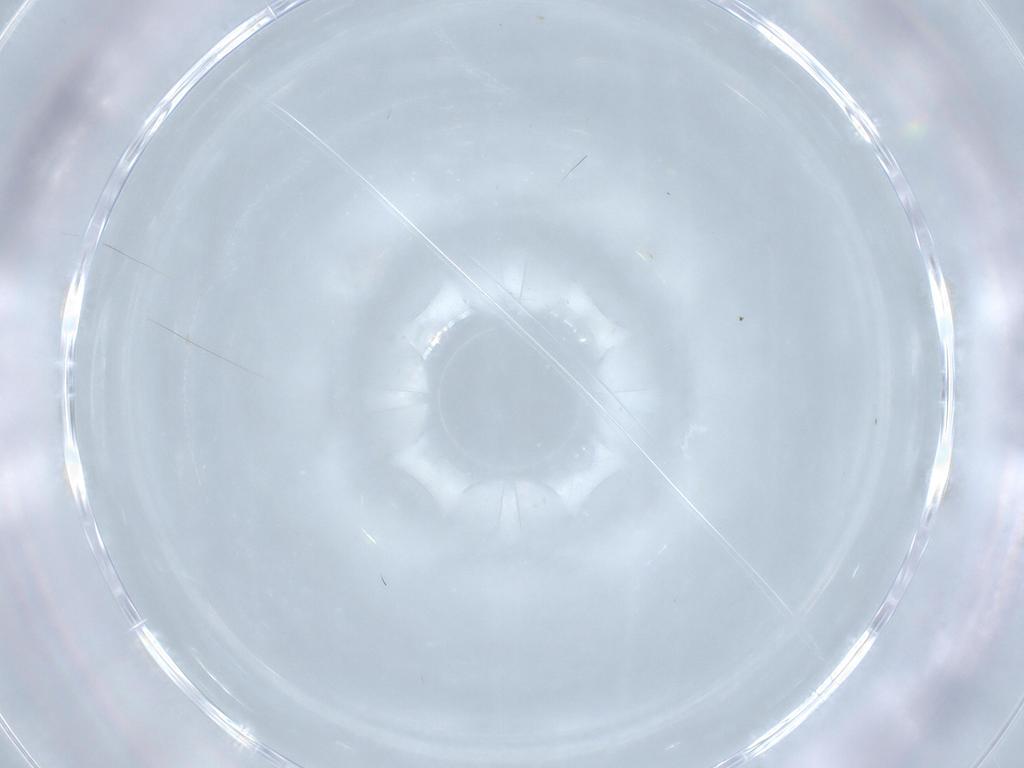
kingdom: Animalia
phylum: Arthropoda
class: Insecta
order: Diptera
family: Cecidomyiidae
